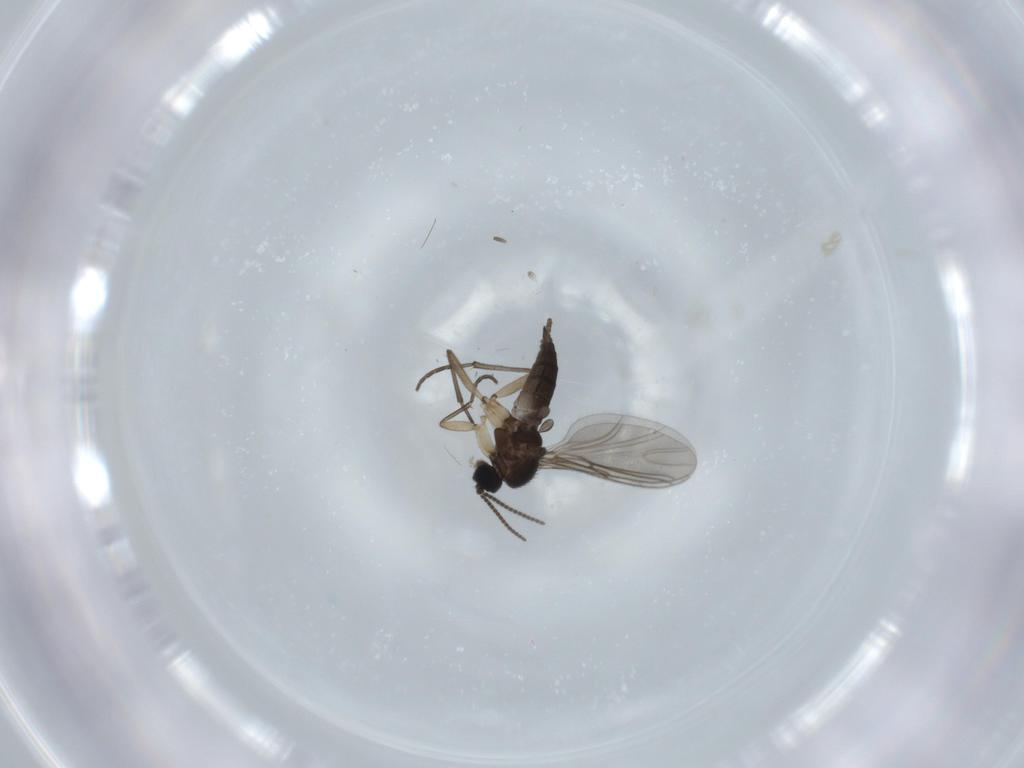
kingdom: Animalia
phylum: Arthropoda
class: Insecta
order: Diptera
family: Sciaridae
